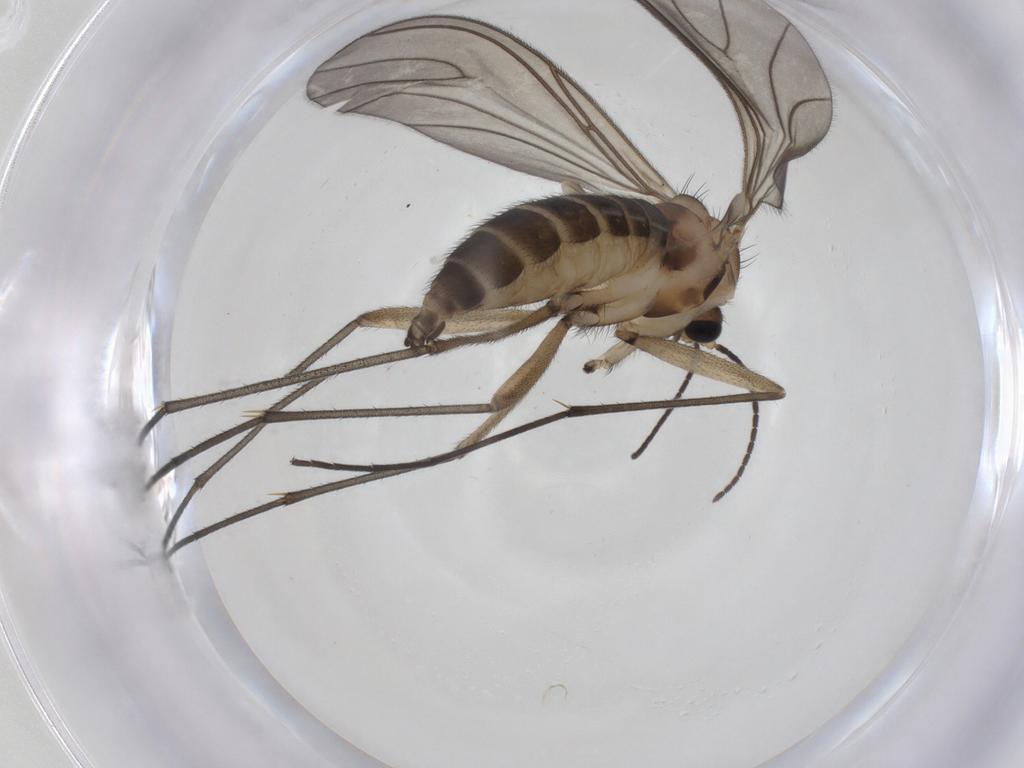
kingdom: Animalia
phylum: Arthropoda
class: Insecta
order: Diptera
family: Sciaridae
